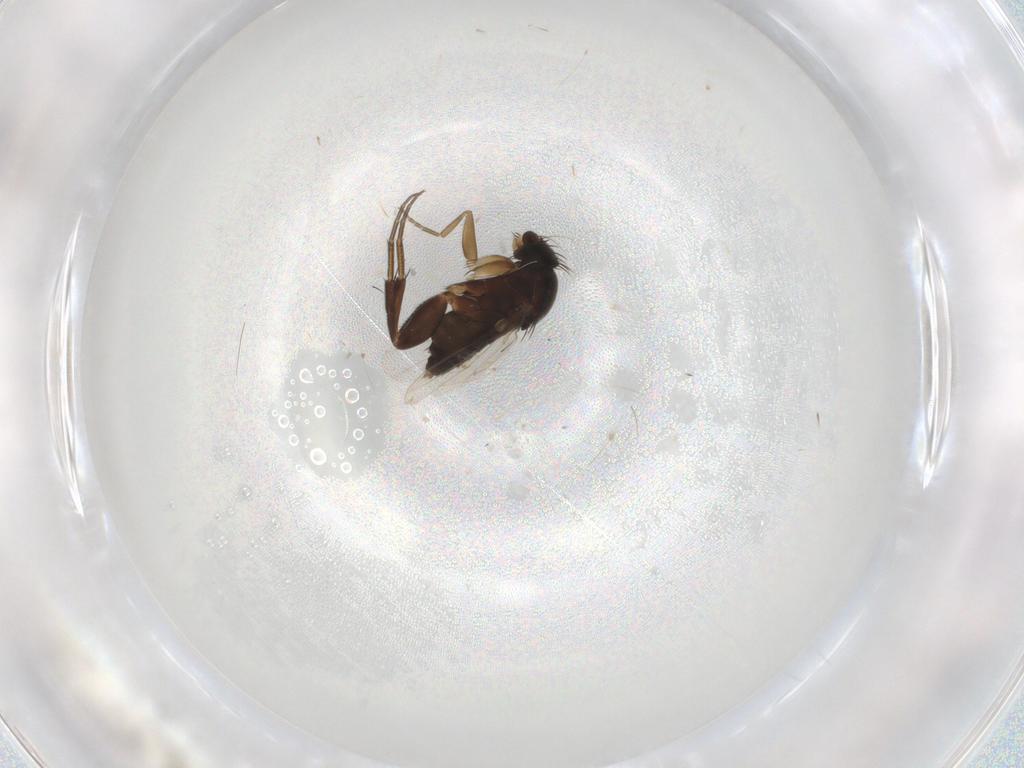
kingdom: Animalia
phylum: Arthropoda
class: Insecta
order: Diptera
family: Phoridae
